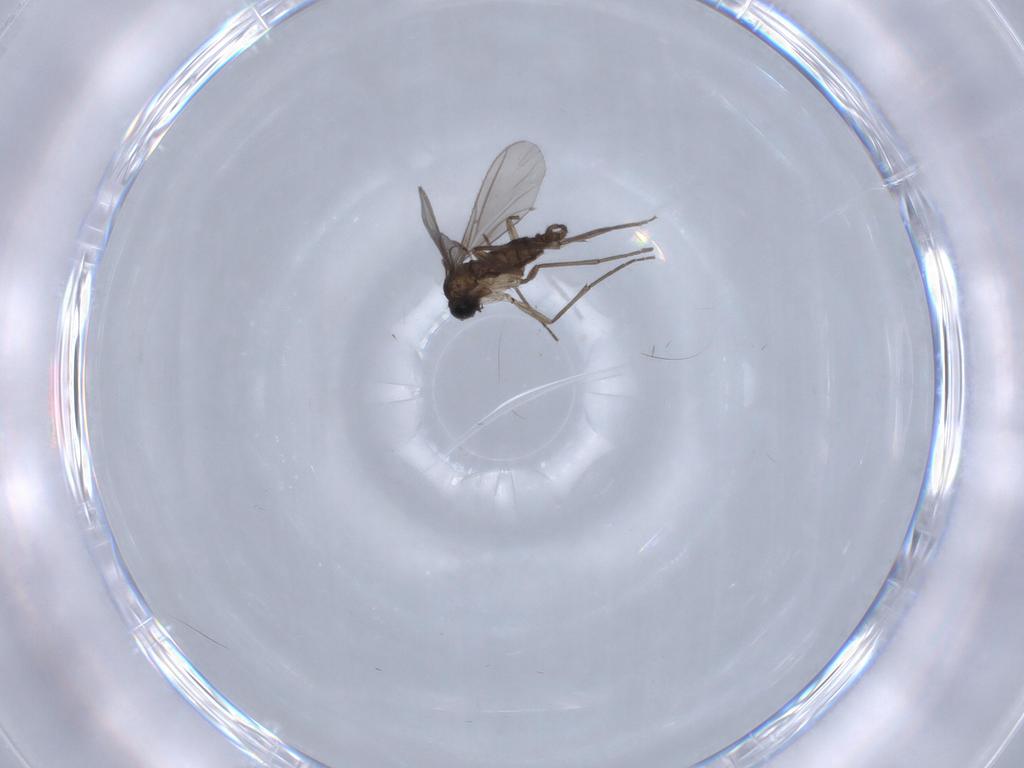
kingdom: Animalia
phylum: Arthropoda
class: Insecta
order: Diptera
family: Sciaridae
